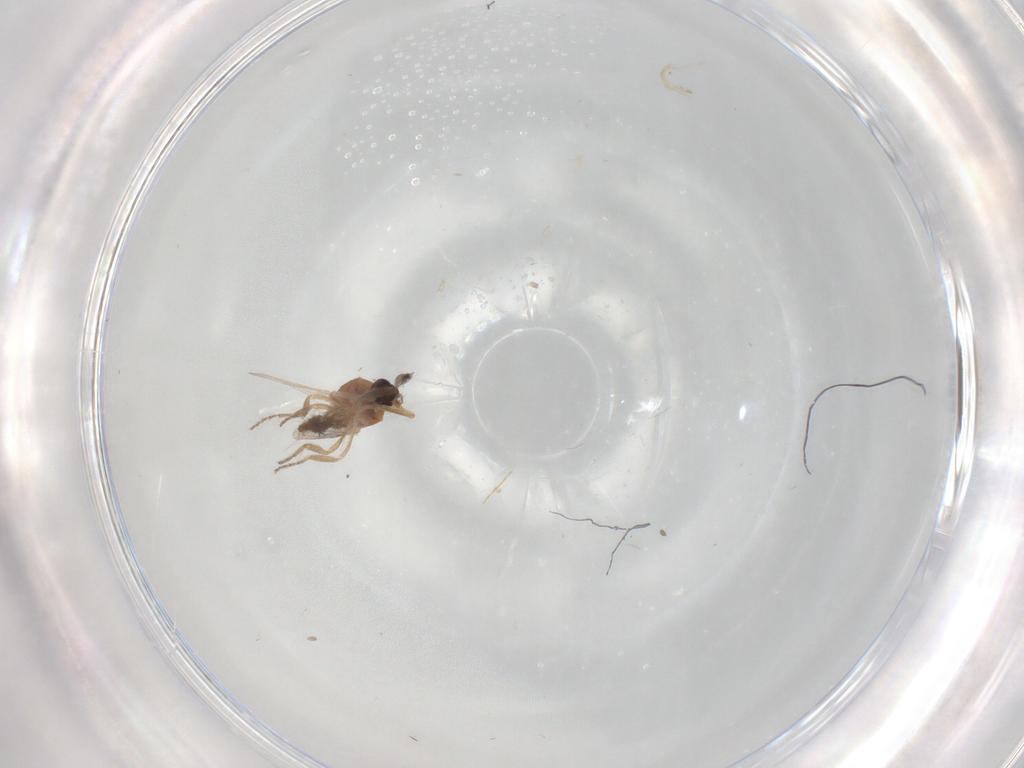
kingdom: Animalia
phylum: Arthropoda
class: Insecta
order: Diptera
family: Ceratopogonidae
